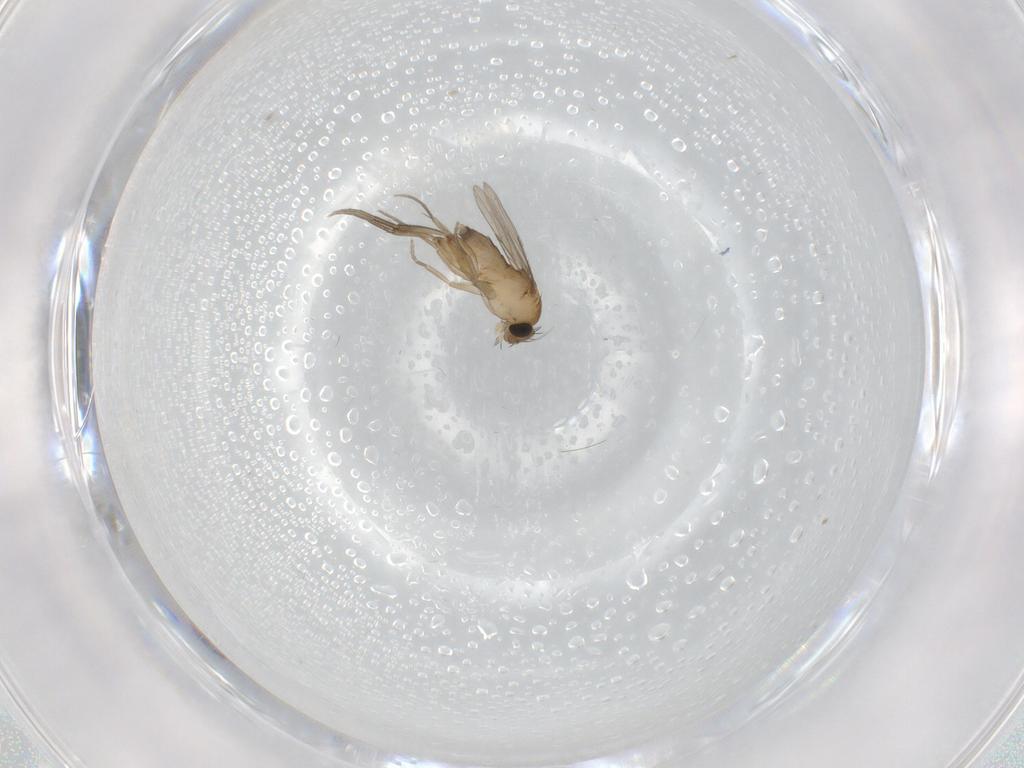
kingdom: Animalia
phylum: Arthropoda
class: Insecta
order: Diptera
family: Phoridae
